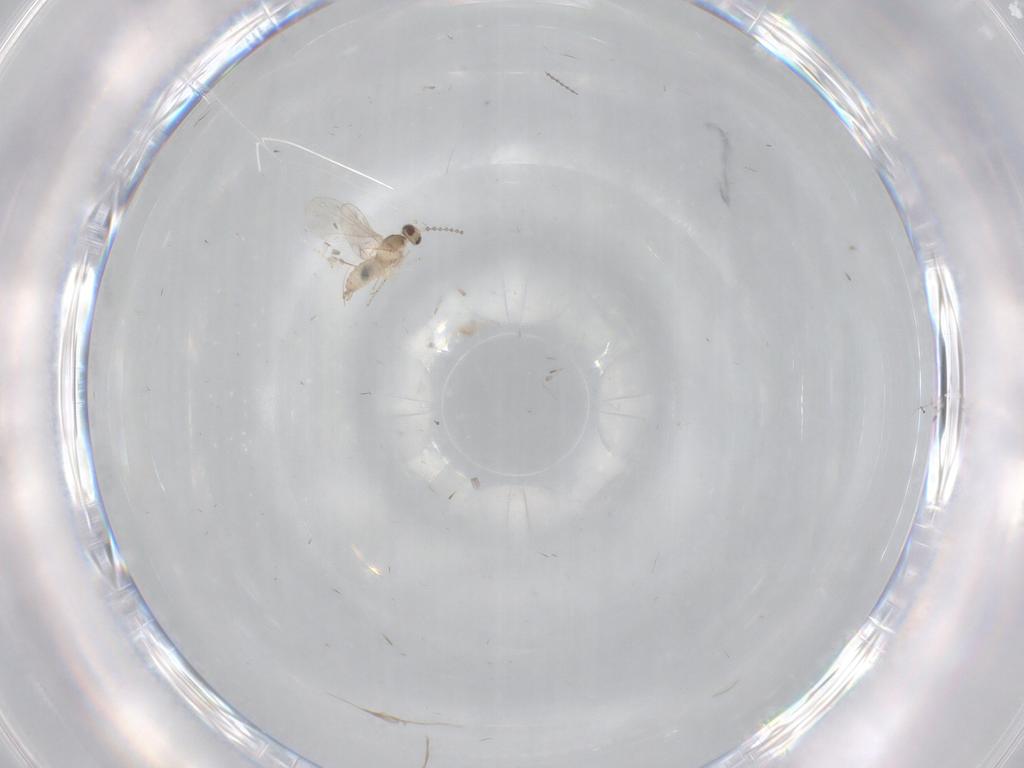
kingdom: Animalia
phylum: Arthropoda
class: Insecta
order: Diptera
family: Cecidomyiidae
